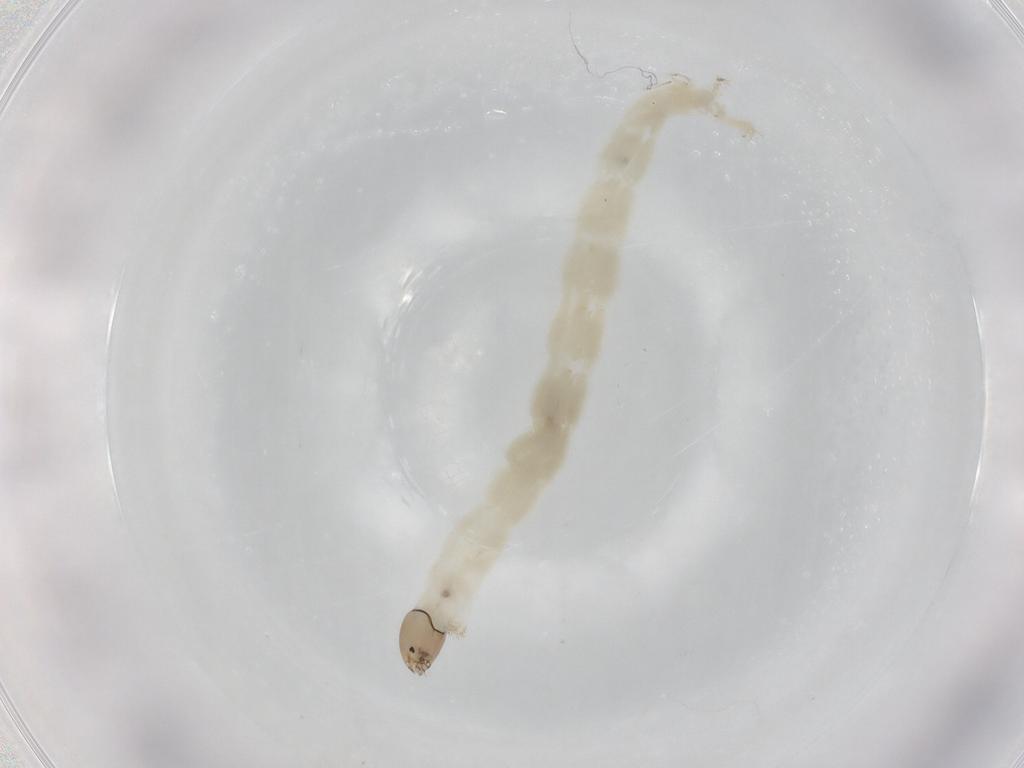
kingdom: Animalia
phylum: Arthropoda
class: Insecta
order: Diptera
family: Chironomidae
